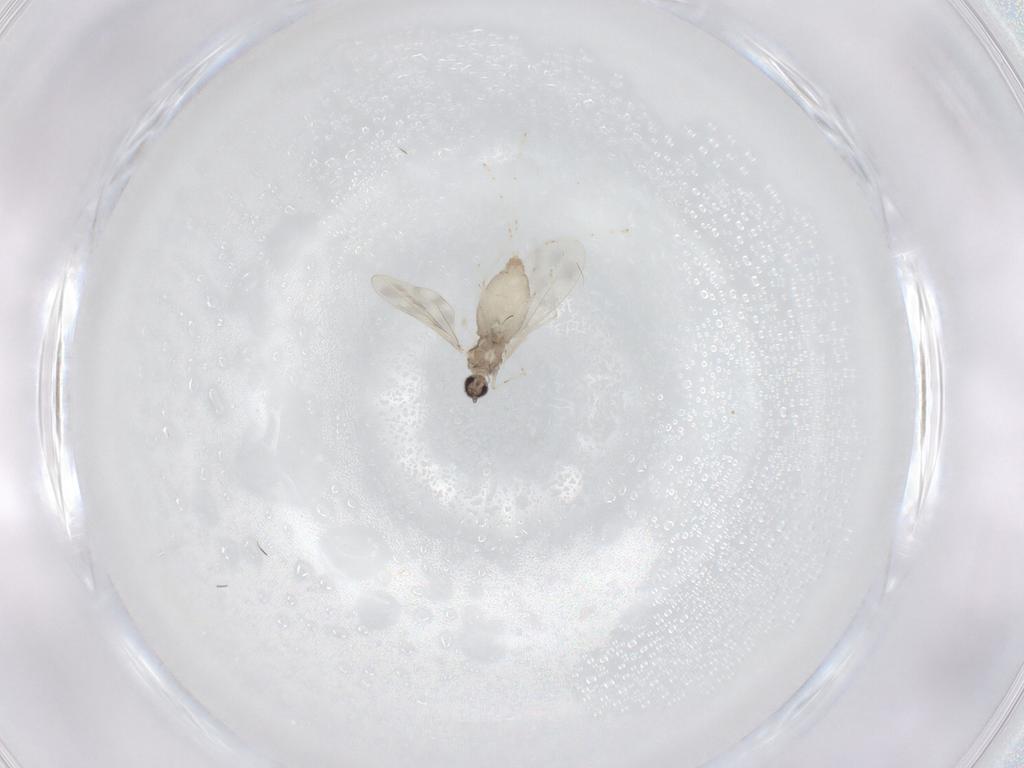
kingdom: Animalia
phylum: Arthropoda
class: Insecta
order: Diptera
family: Cecidomyiidae
